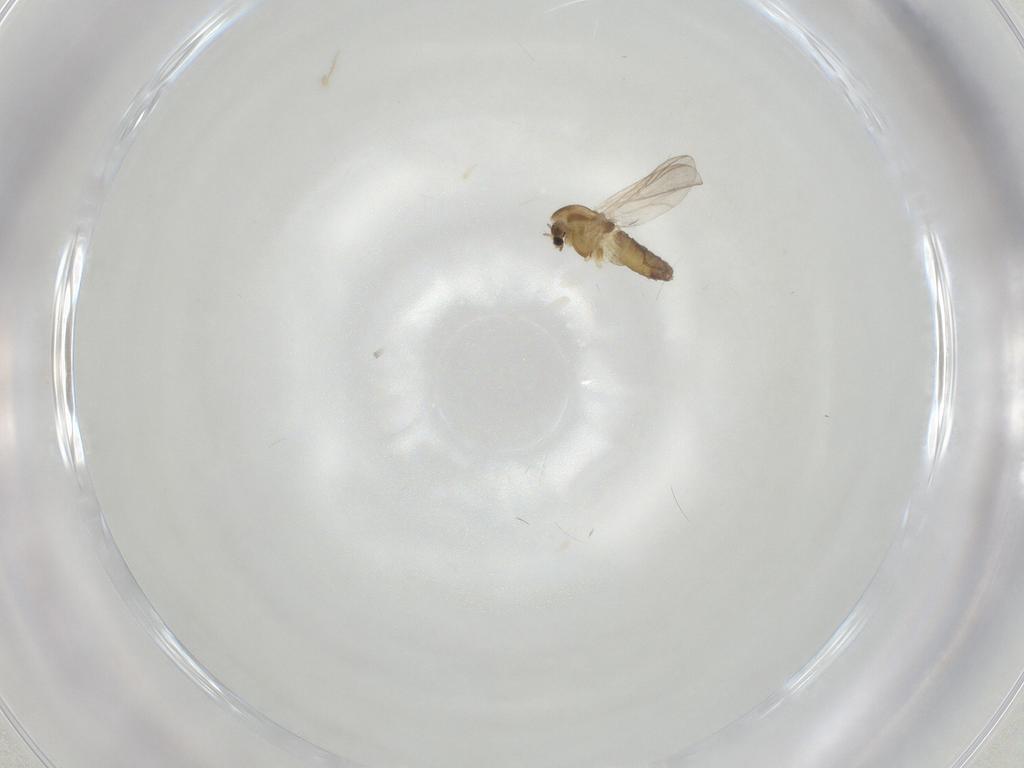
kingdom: Animalia
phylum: Arthropoda
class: Insecta
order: Diptera
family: Chironomidae
